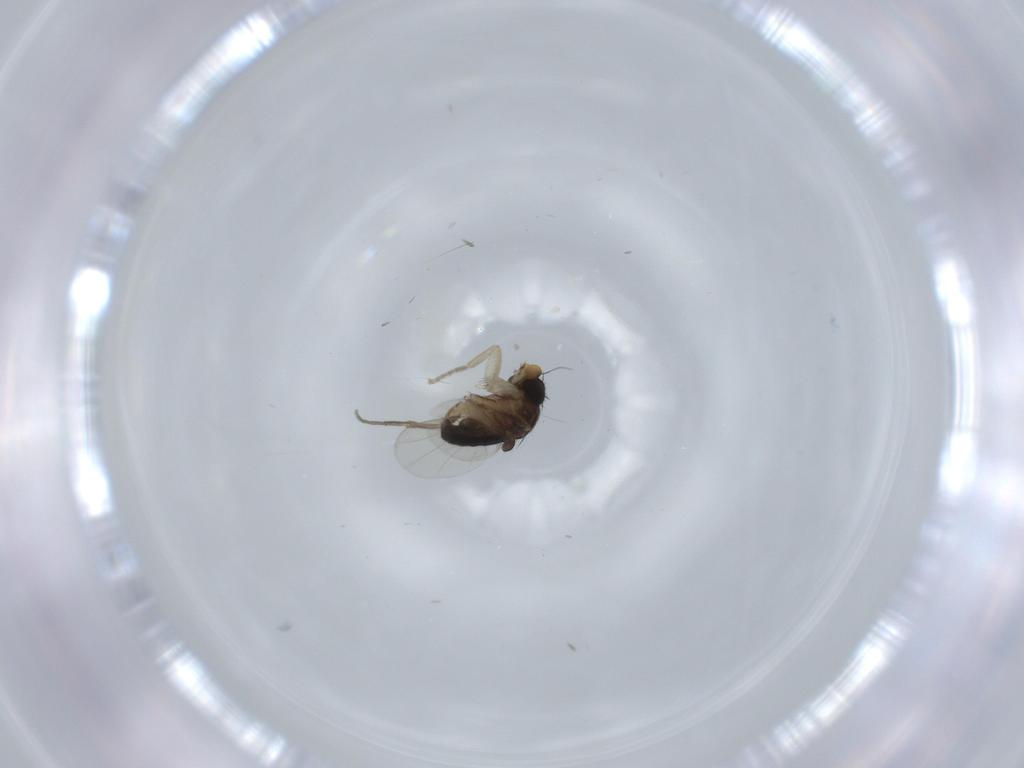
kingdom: Animalia
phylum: Arthropoda
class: Insecta
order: Diptera
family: Phoridae
